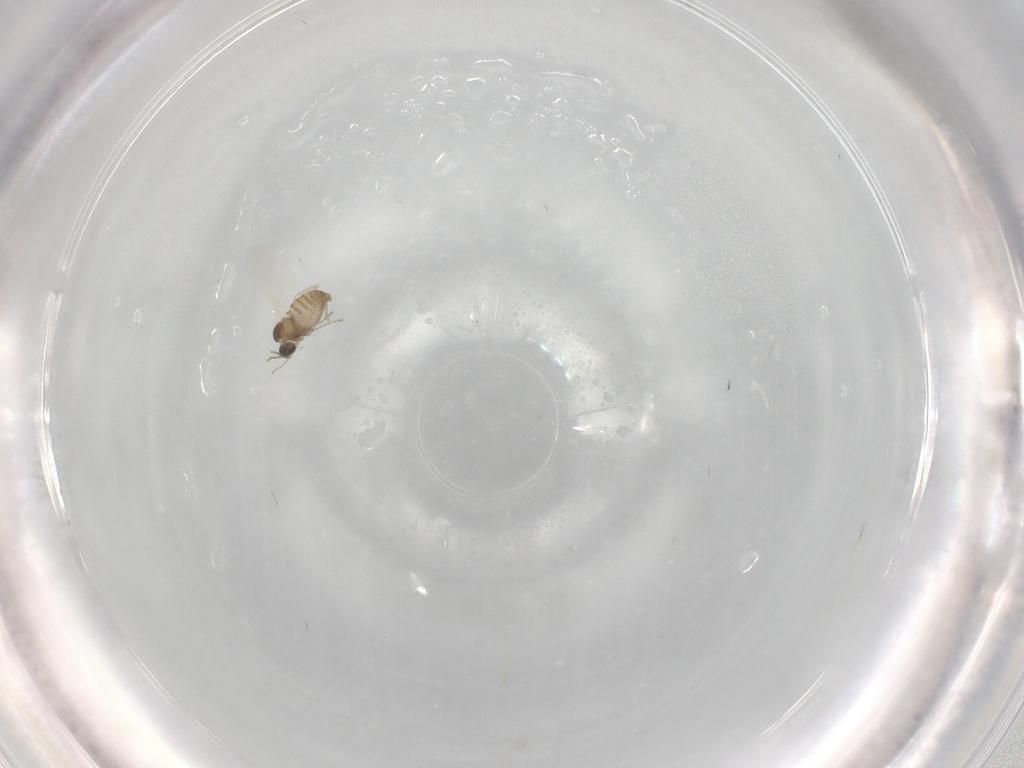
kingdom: Animalia
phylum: Arthropoda
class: Insecta
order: Diptera
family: Cecidomyiidae
